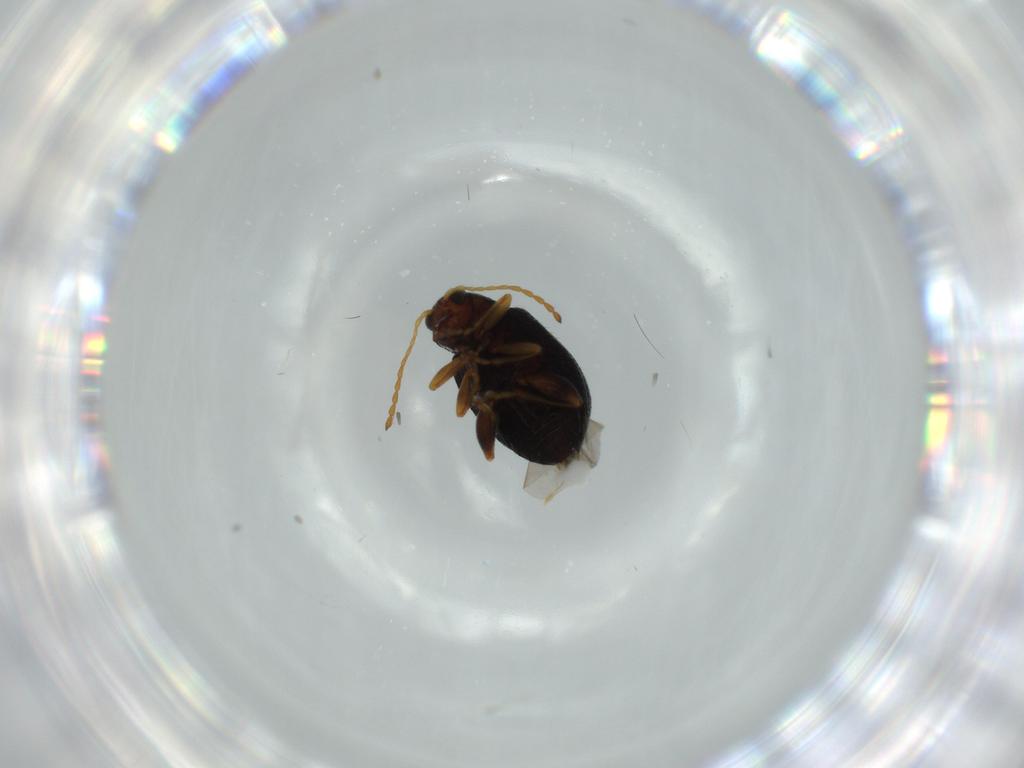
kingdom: Animalia
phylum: Arthropoda
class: Insecta
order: Coleoptera
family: Chrysomelidae
